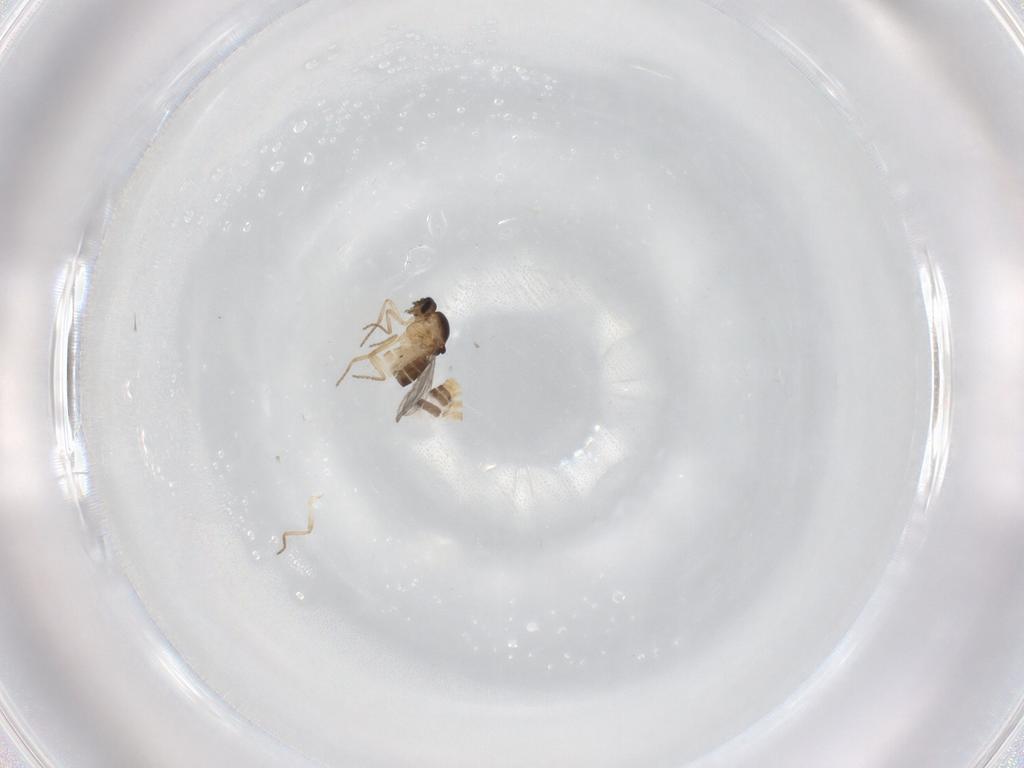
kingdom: Animalia
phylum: Arthropoda
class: Insecta
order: Diptera
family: Ceratopogonidae
